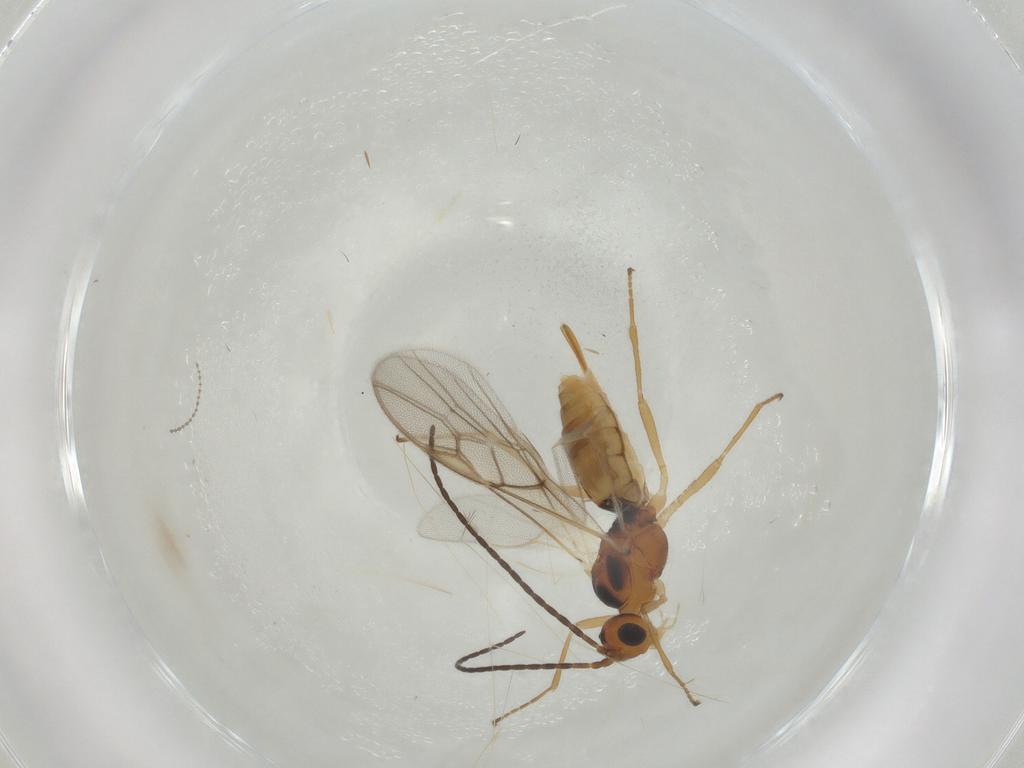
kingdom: Animalia
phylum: Arthropoda
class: Insecta
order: Hymenoptera
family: Braconidae
